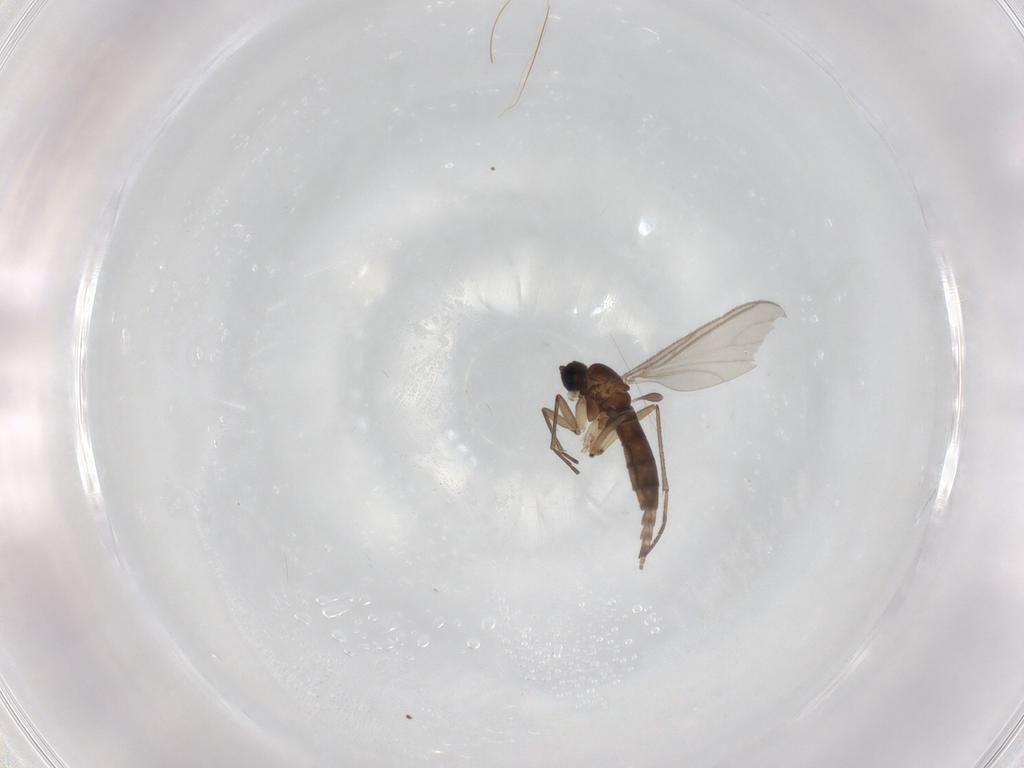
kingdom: Animalia
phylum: Arthropoda
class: Insecta
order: Diptera
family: Sciaridae
